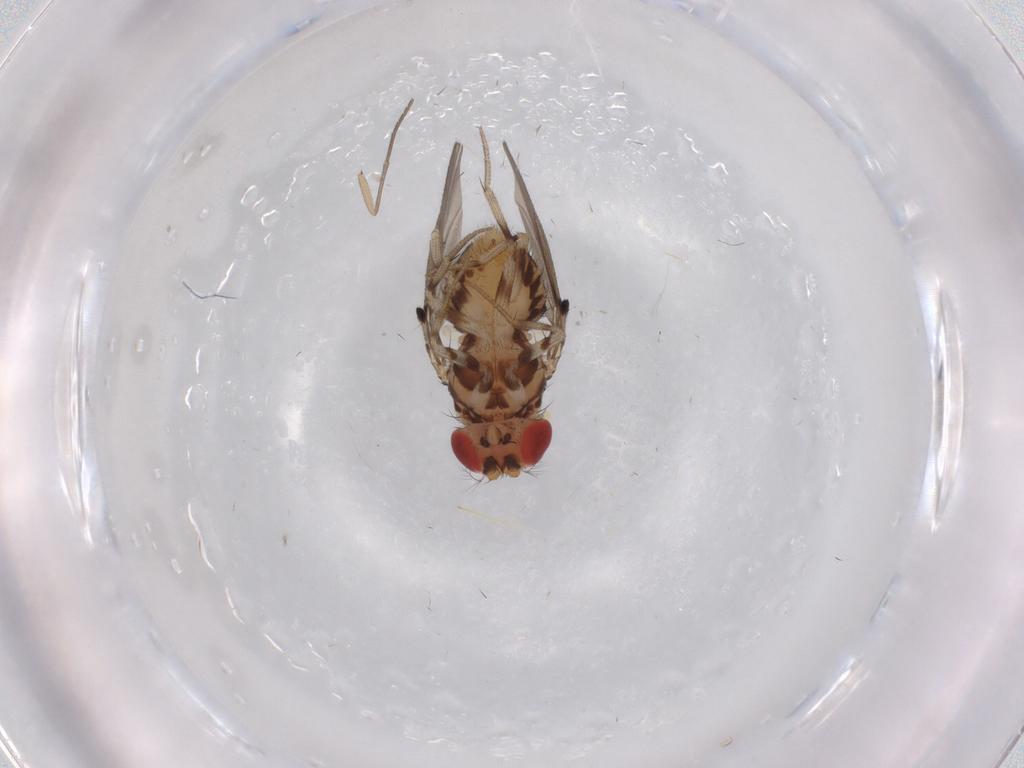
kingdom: Animalia
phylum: Arthropoda
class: Insecta
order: Diptera
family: Drosophilidae
